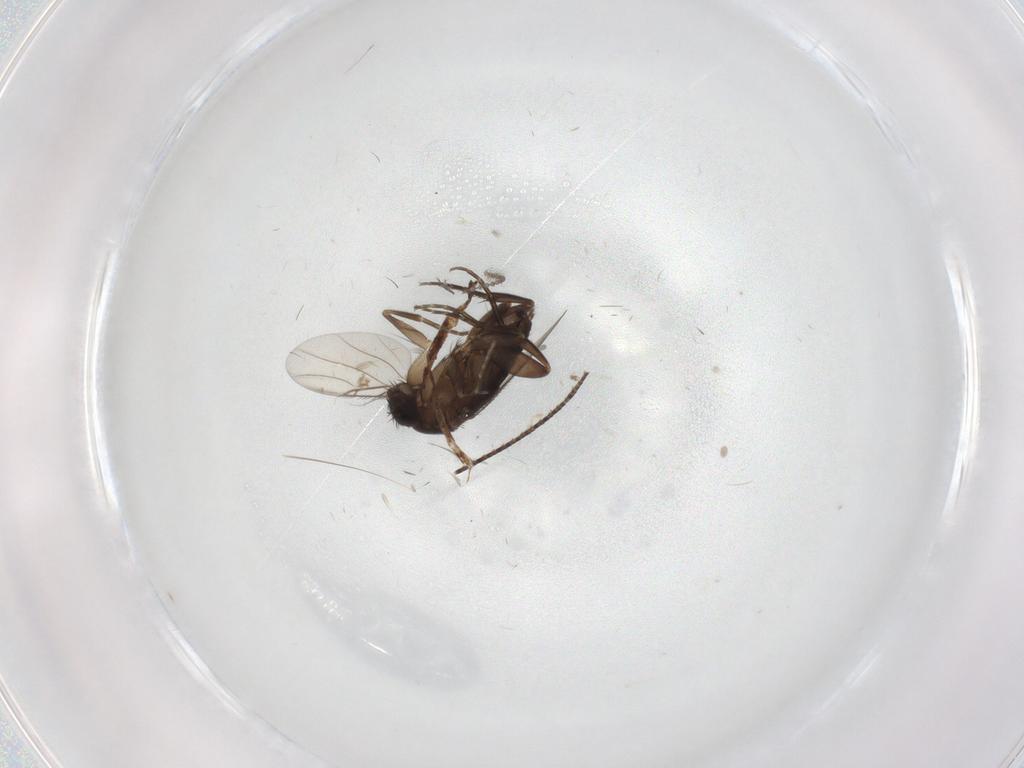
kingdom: Animalia
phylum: Arthropoda
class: Insecta
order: Diptera
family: Phoridae
